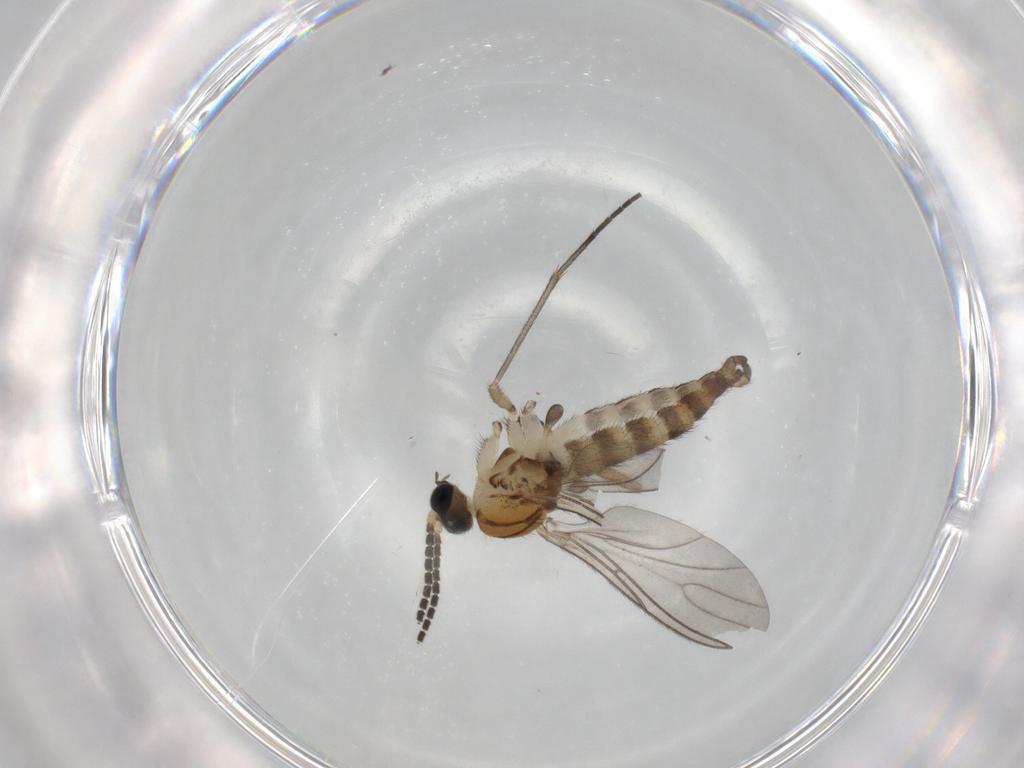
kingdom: Animalia
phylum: Arthropoda
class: Insecta
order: Diptera
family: Sciaridae
